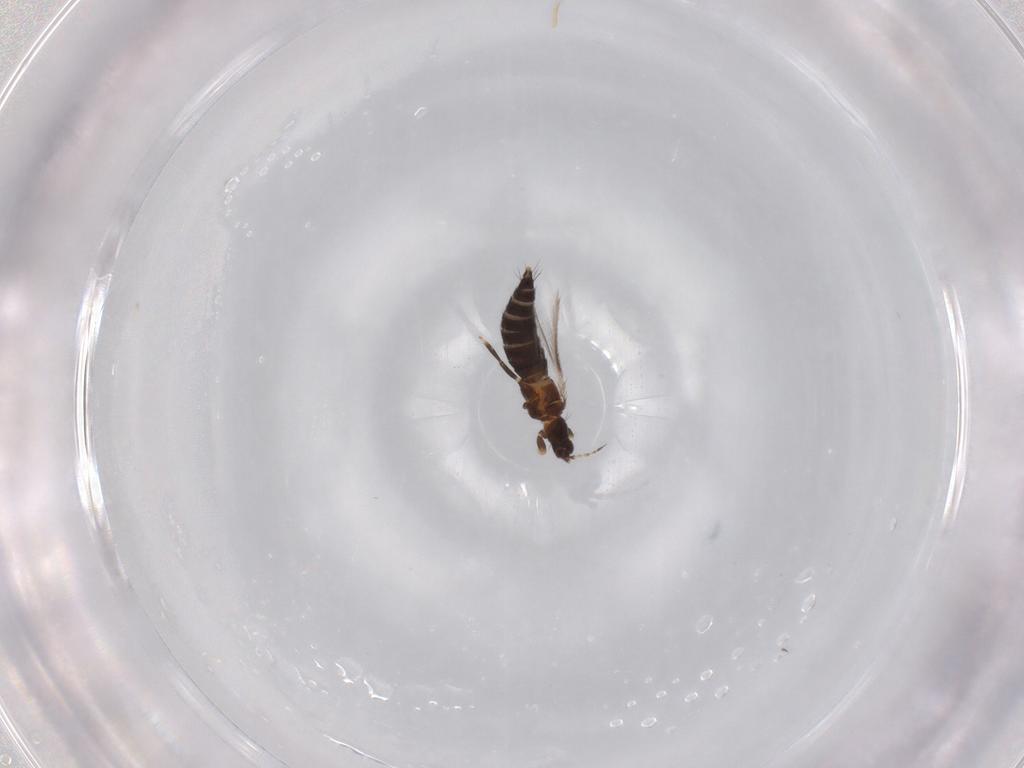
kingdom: Animalia
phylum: Arthropoda
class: Insecta
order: Thysanoptera
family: Thripidae
